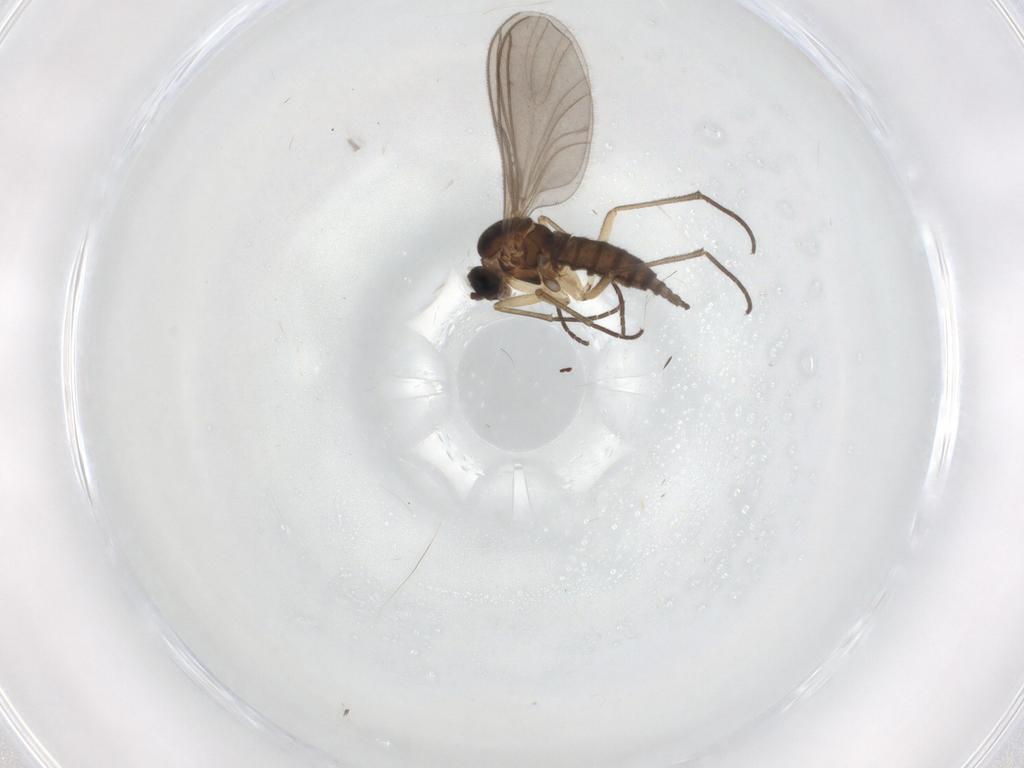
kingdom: Animalia
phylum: Arthropoda
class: Insecta
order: Diptera
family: Sciaridae
